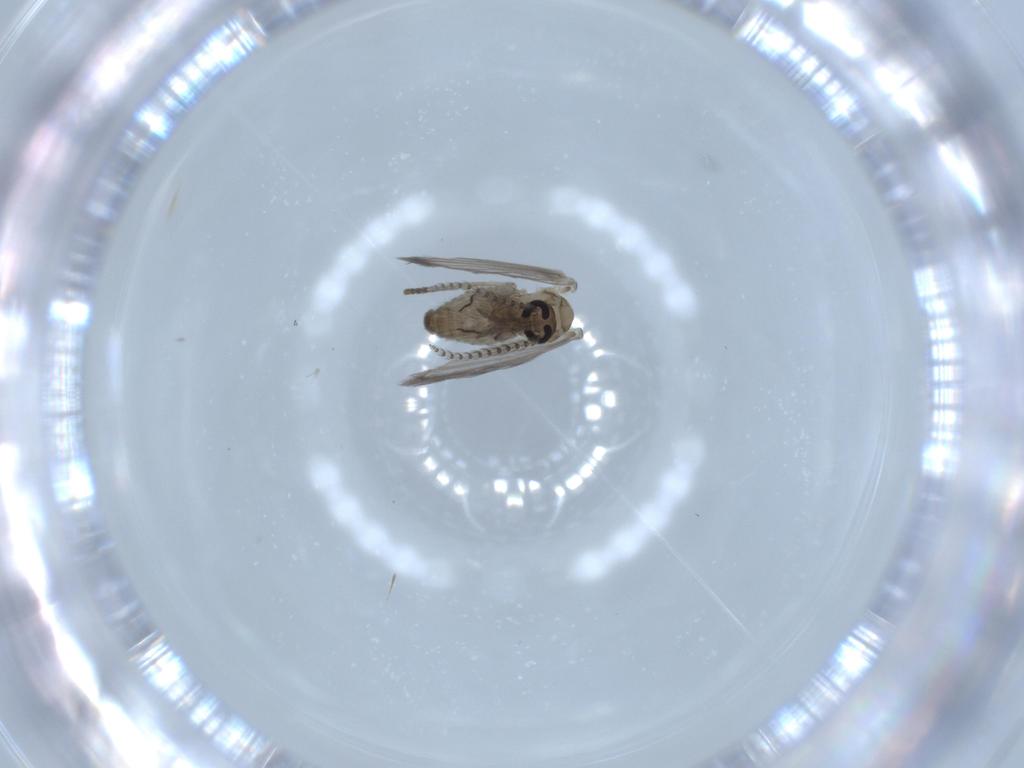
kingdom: Animalia
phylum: Arthropoda
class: Insecta
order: Diptera
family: Psychodidae
